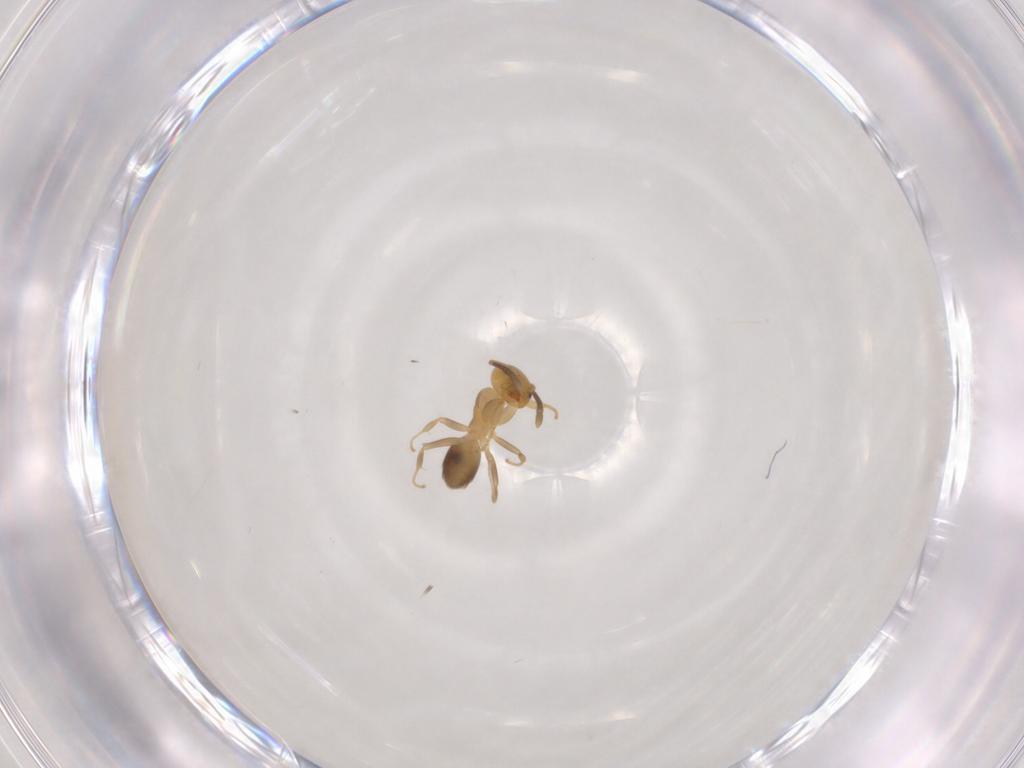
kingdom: Animalia
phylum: Arthropoda
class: Insecta
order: Hymenoptera
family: Formicidae
